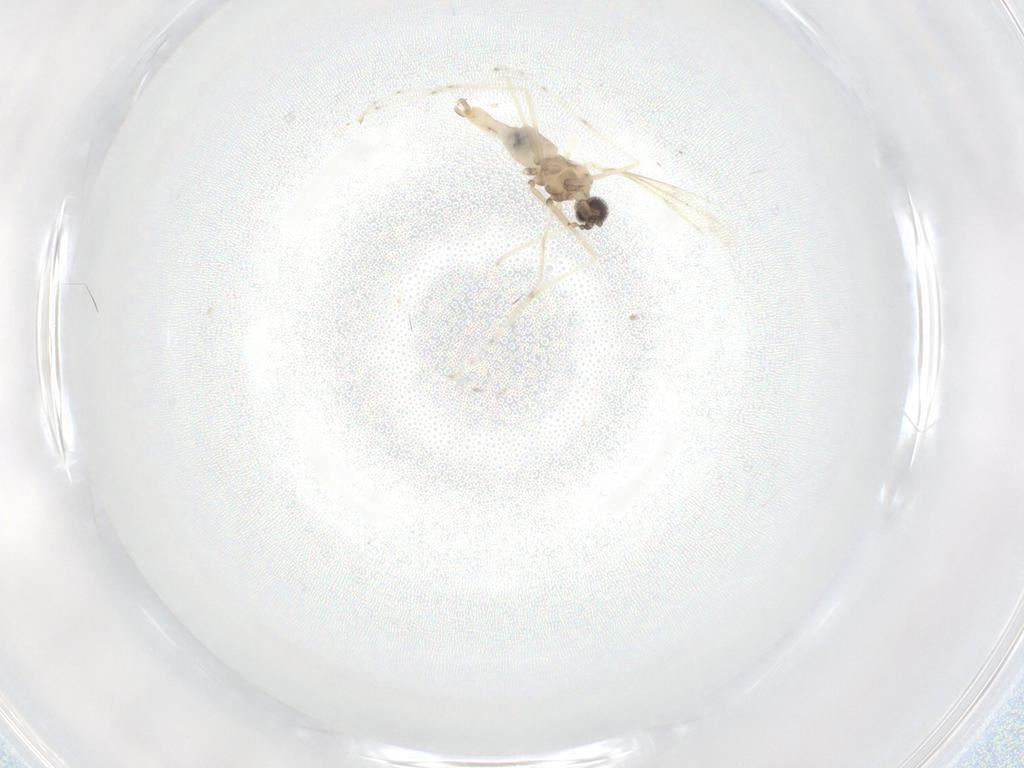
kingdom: Animalia
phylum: Arthropoda
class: Insecta
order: Diptera
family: Cecidomyiidae
